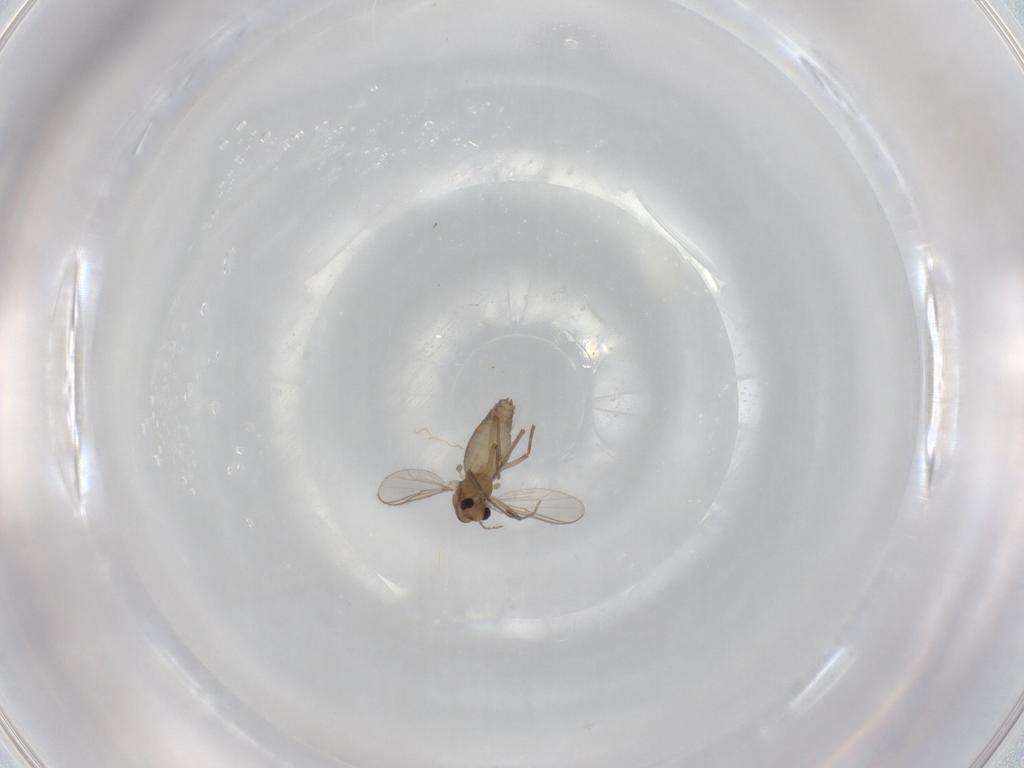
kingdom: Animalia
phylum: Arthropoda
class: Insecta
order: Diptera
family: Chironomidae
